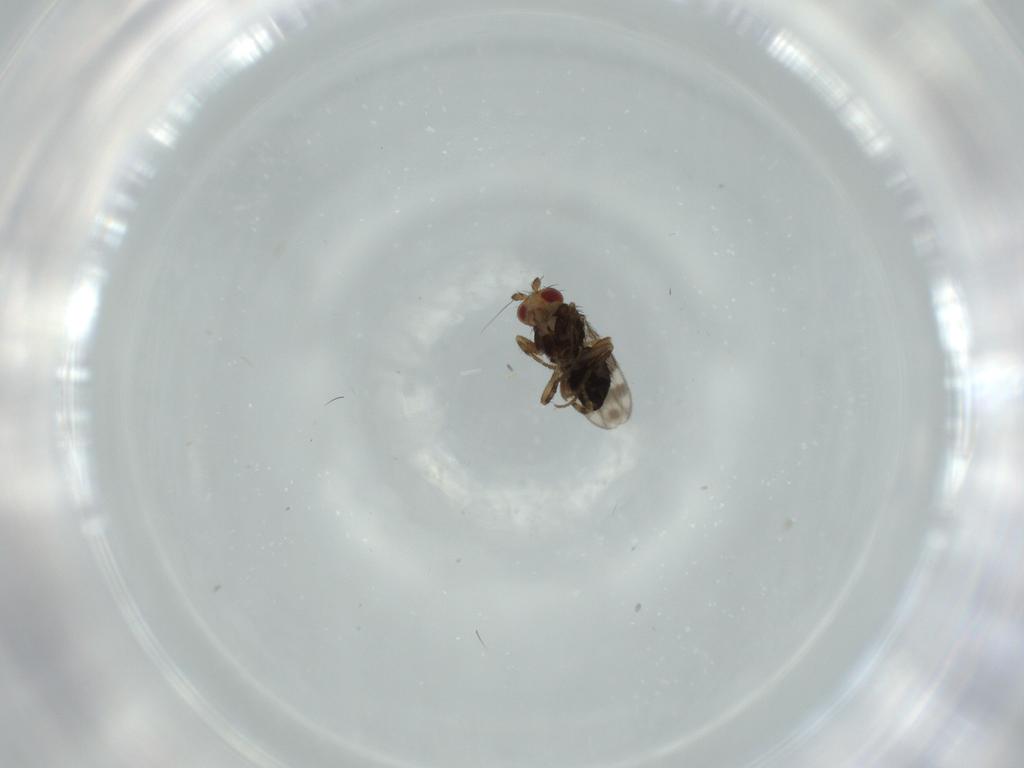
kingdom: Animalia
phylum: Arthropoda
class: Insecta
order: Diptera
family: Sphaeroceridae
